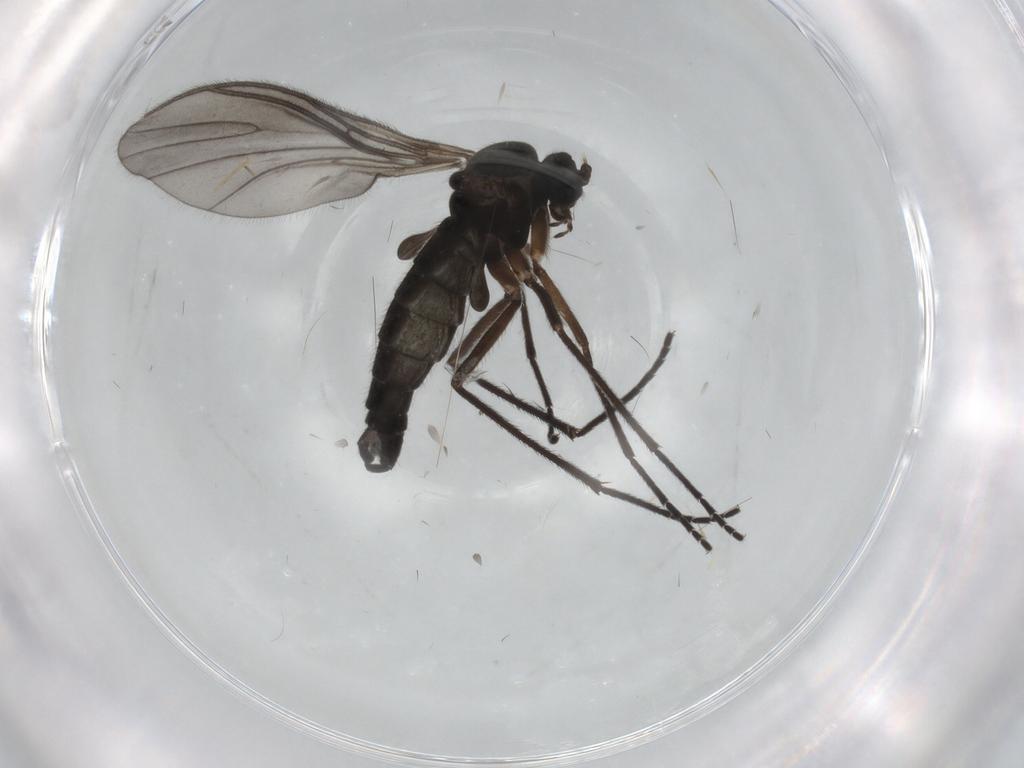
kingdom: Animalia
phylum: Arthropoda
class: Insecta
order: Diptera
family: Sciaridae
